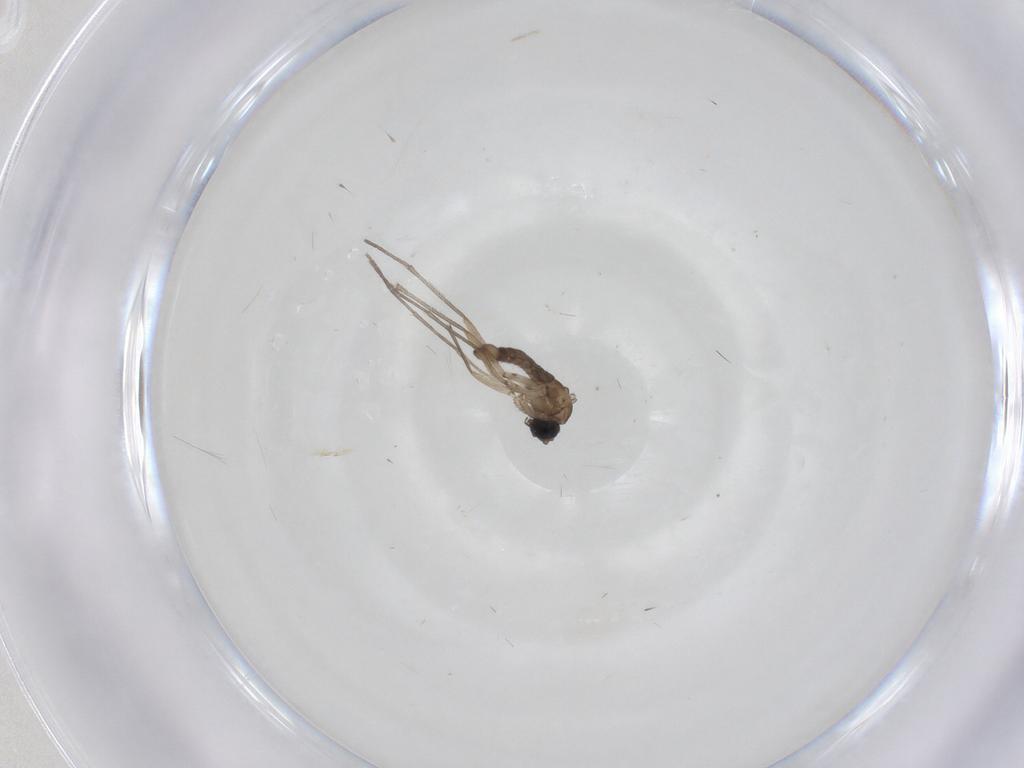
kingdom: Animalia
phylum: Arthropoda
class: Insecta
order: Diptera
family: Sciaridae
